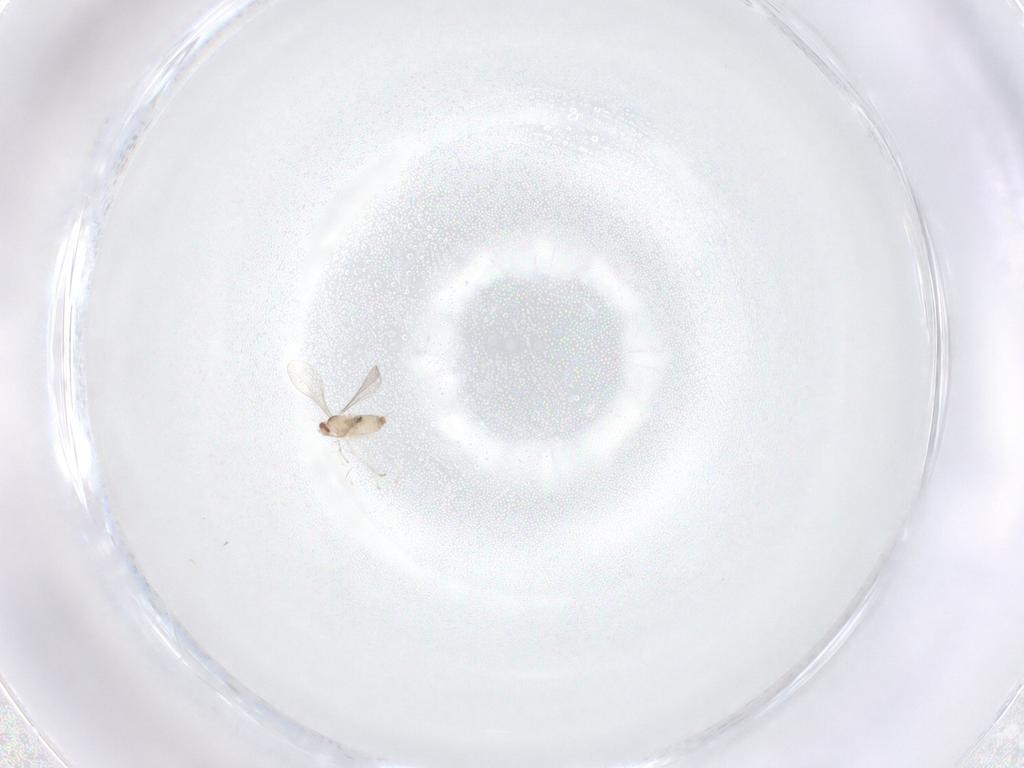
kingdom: Animalia
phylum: Arthropoda
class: Insecta
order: Diptera
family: Cecidomyiidae
